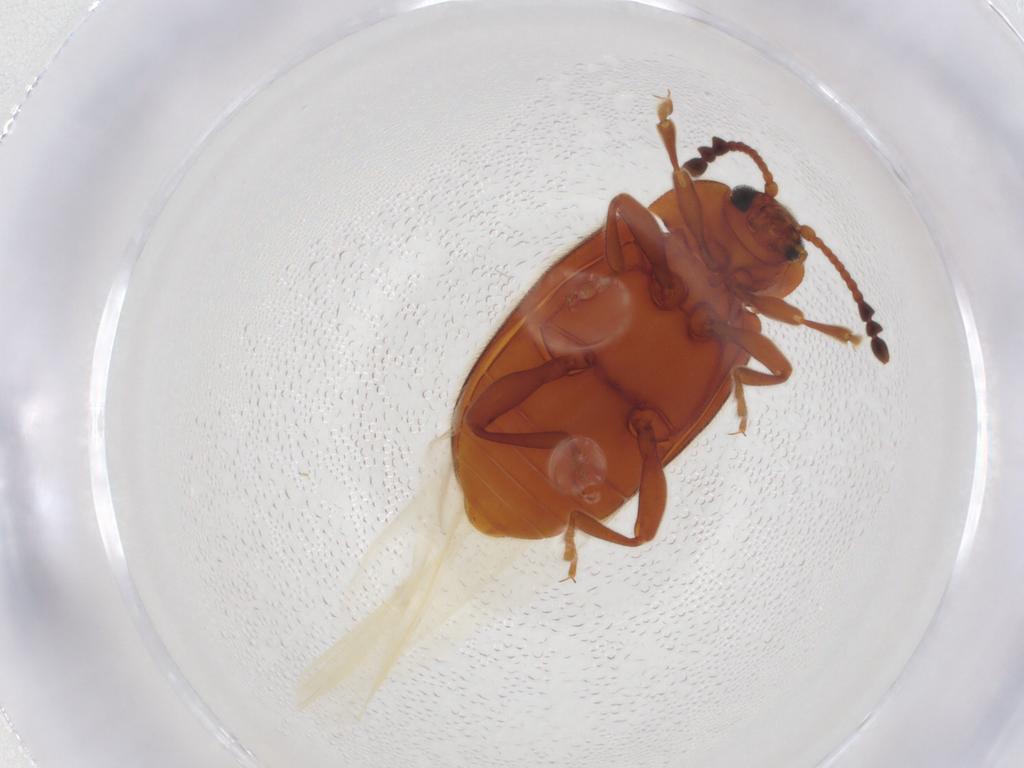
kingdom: Animalia
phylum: Arthropoda
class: Insecta
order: Coleoptera
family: Endomychidae
